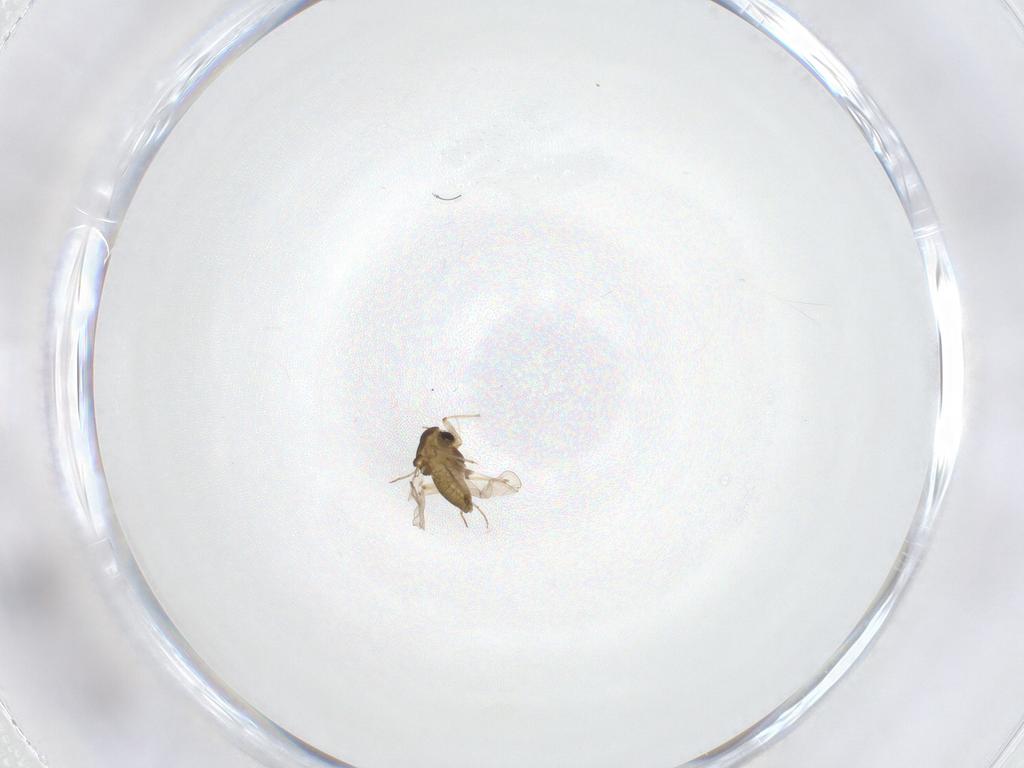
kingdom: Animalia
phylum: Arthropoda
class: Insecta
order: Diptera
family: Chironomidae
